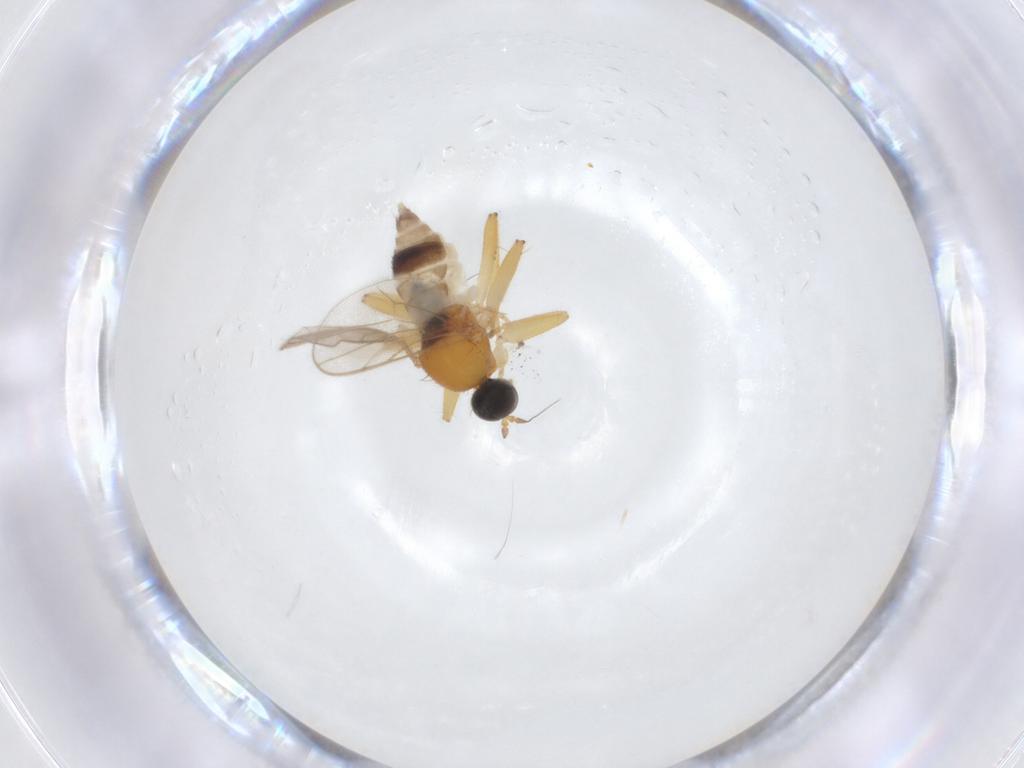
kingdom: Animalia
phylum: Arthropoda
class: Insecta
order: Diptera
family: Hybotidae
